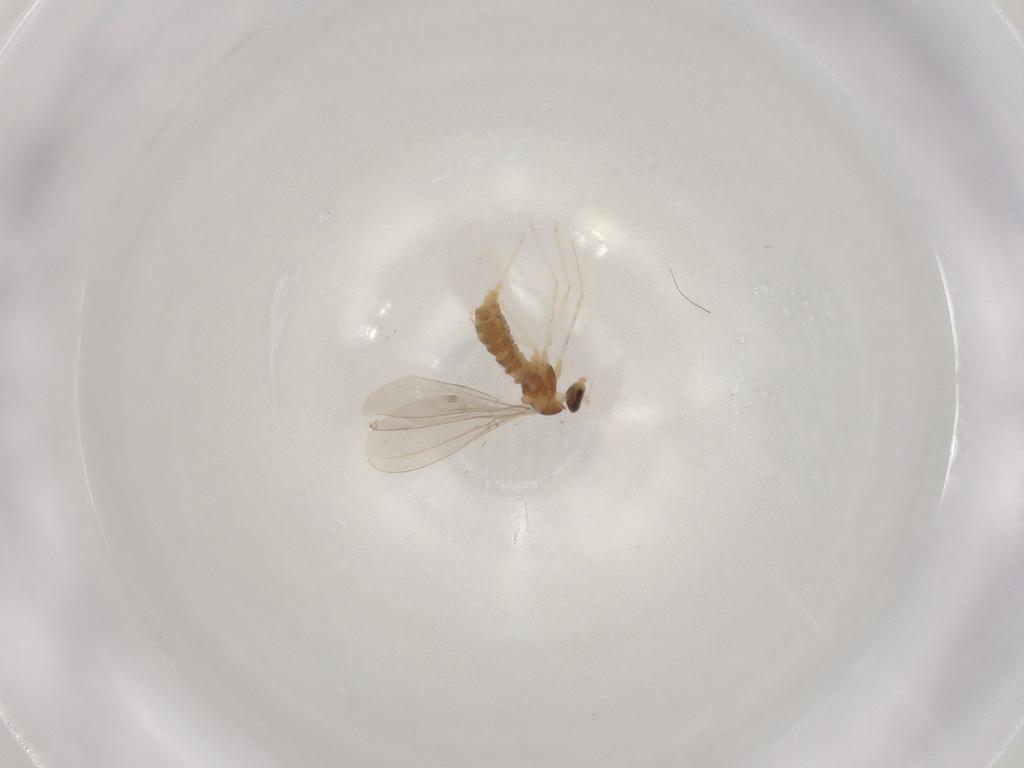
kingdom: Animalia
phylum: Arthropoda
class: Insecta
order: Diptera
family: Cecidomyiidae
